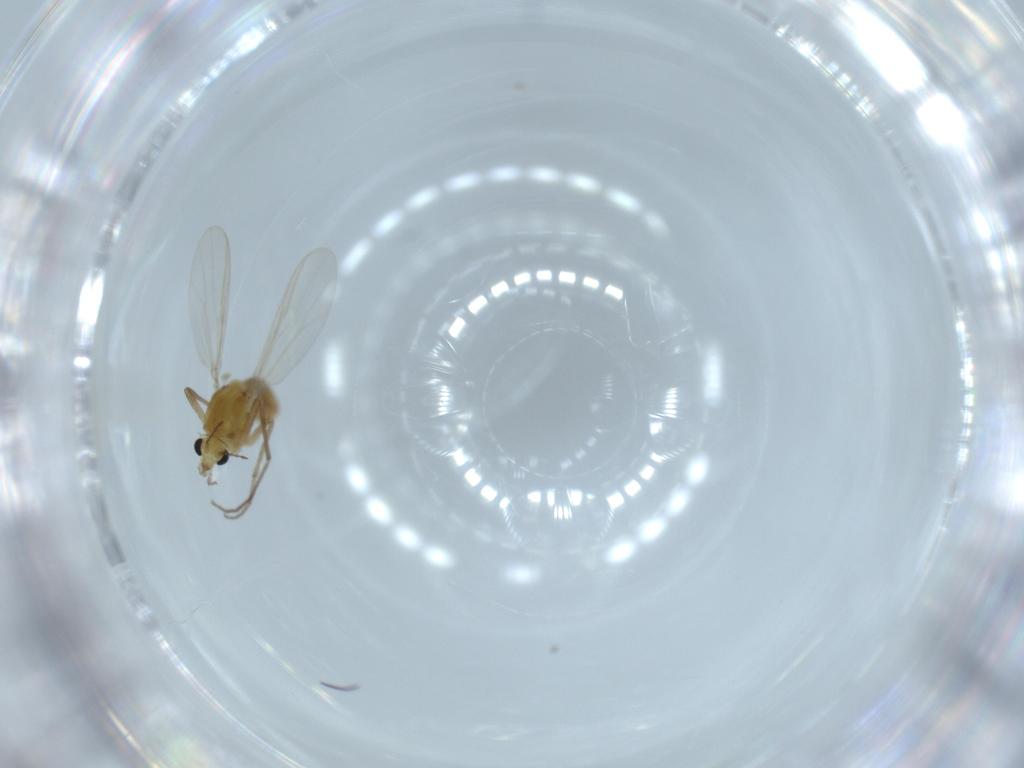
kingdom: Animalia
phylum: Arthropoda
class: Insecta
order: Diptera
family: Chironomidae
